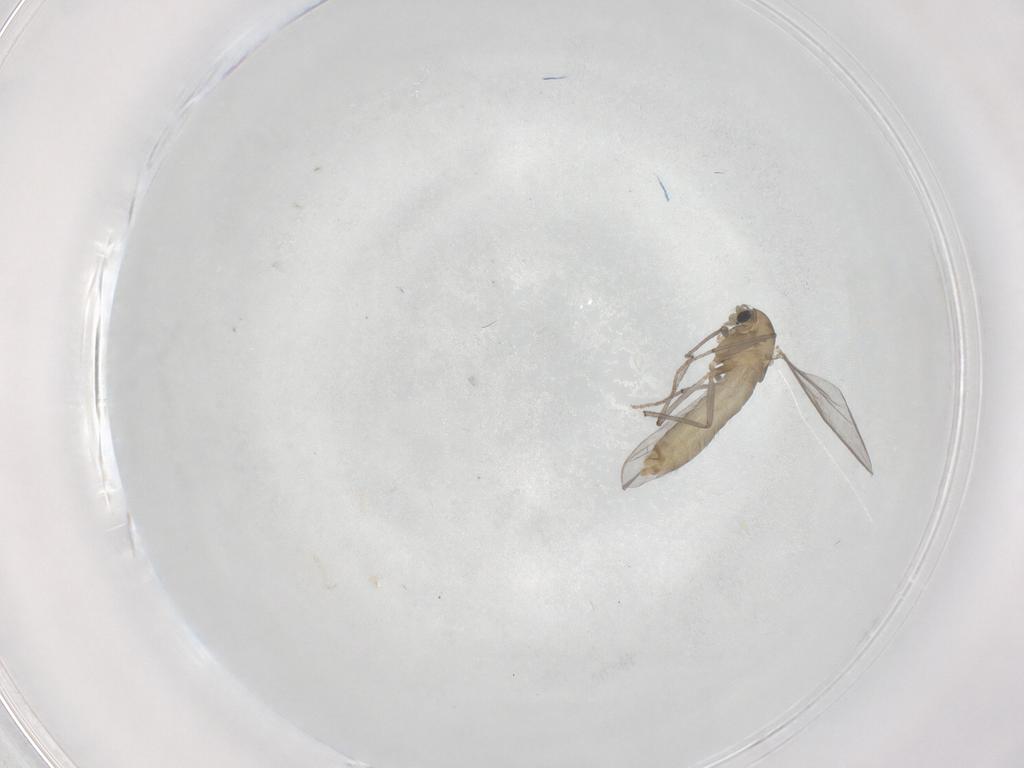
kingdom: Animalia
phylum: Arthropoda
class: Insecta
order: Diptera
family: Chironomidae
